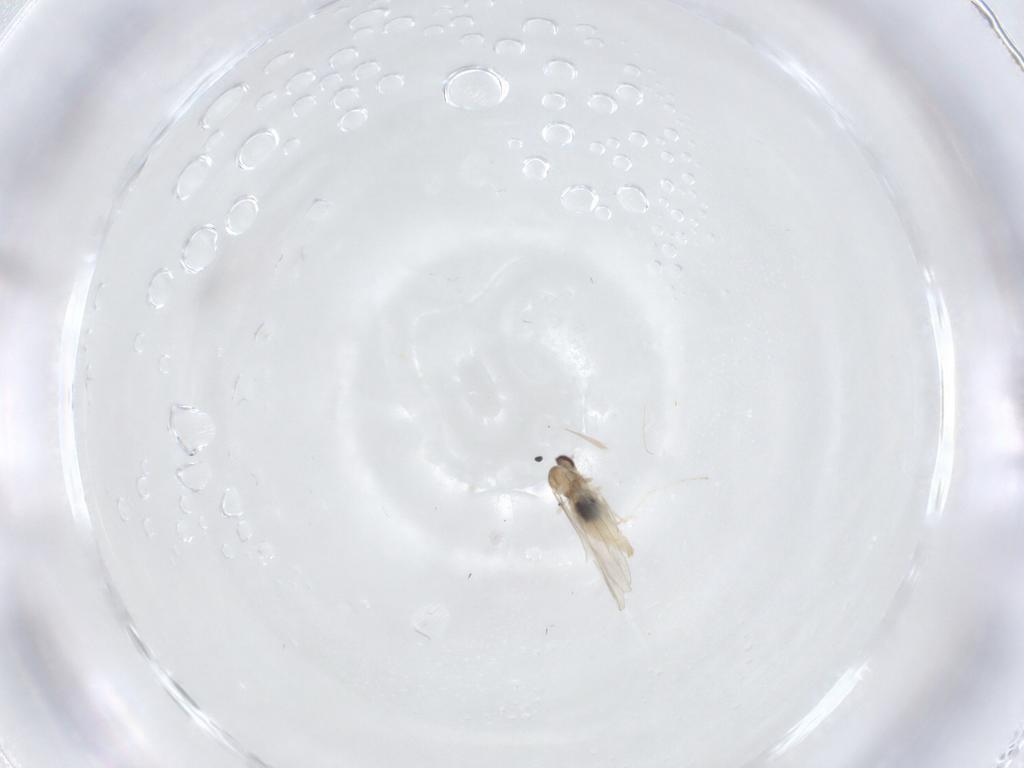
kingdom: Animalia
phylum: Arthropoda
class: Insecta
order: Diptera
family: Cecidomyiidae
